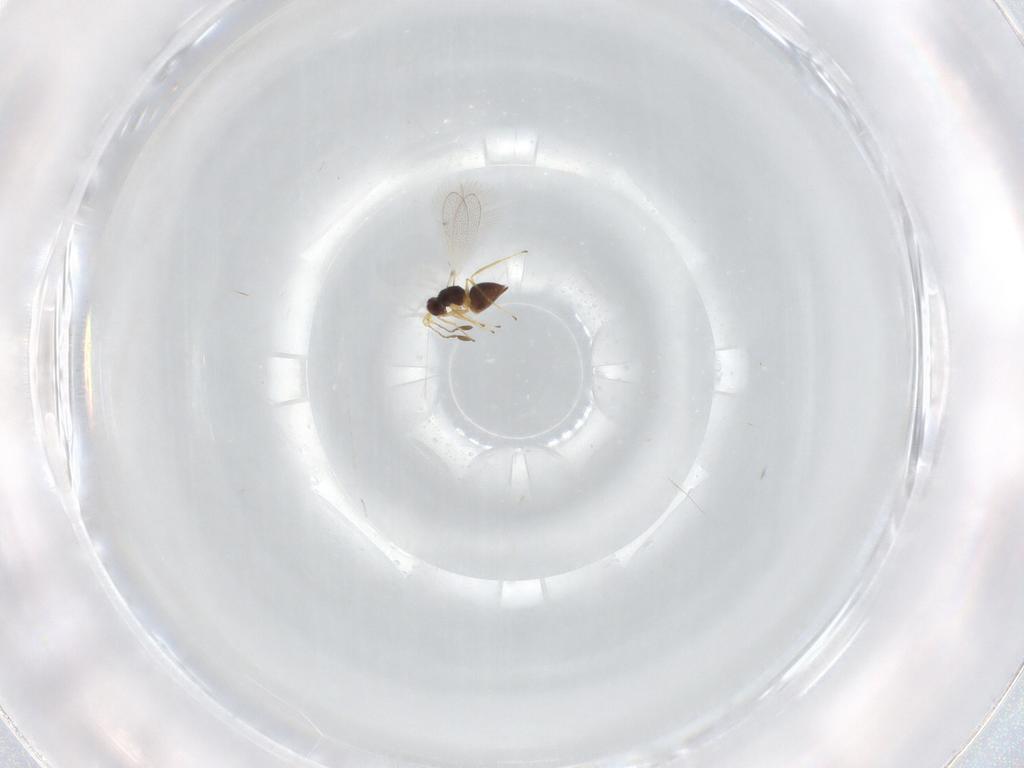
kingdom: Animalia
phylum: Arthropoda
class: Insecta
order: Hymenoptera
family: Mymaridae
